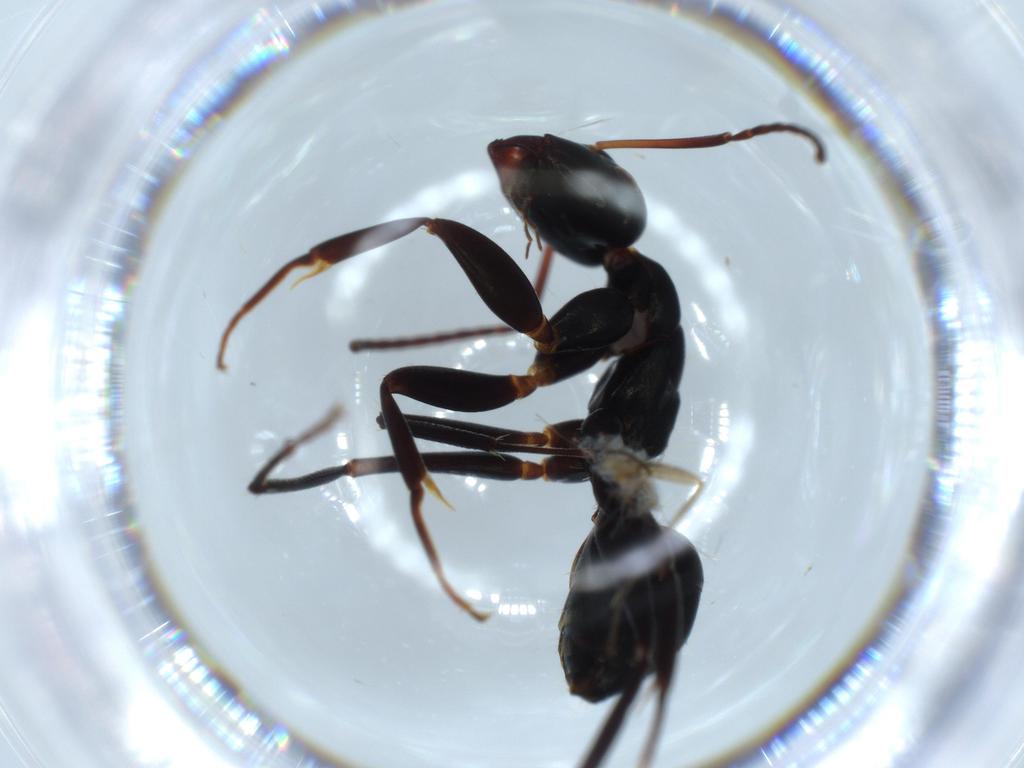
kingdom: Animalia
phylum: Arthropoda
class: Insecta
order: Hymenoptera
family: Formicidae
